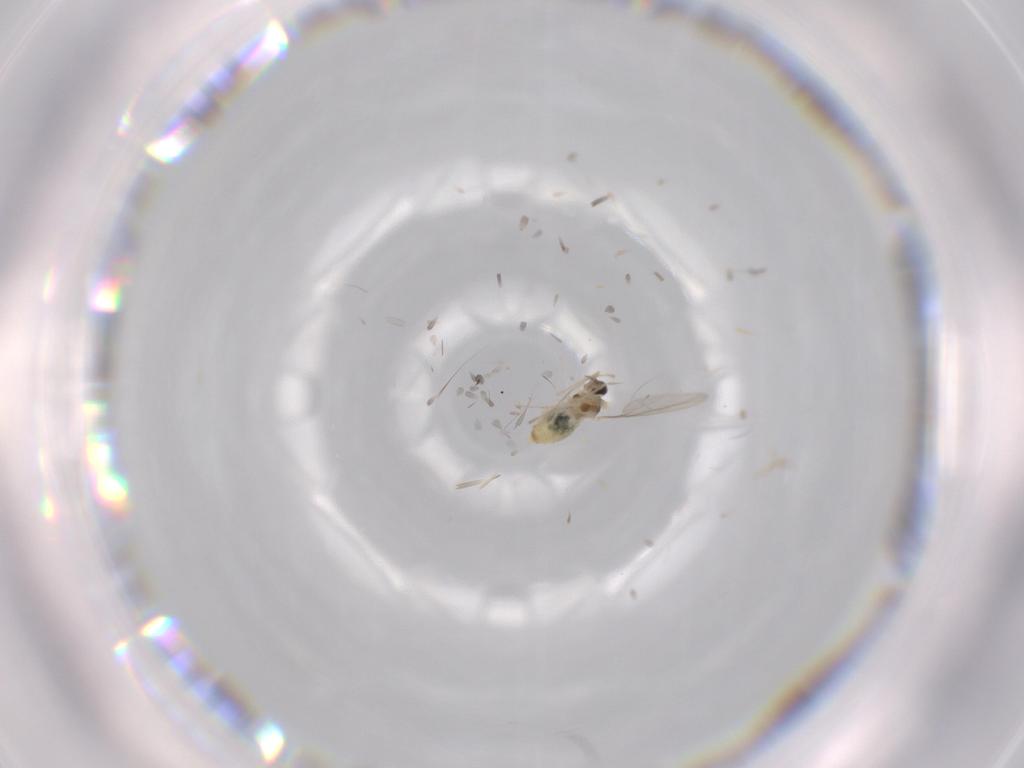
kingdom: Animalia
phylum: Arthropoda
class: Insecta
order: Diptera
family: Cecidomyiidae
